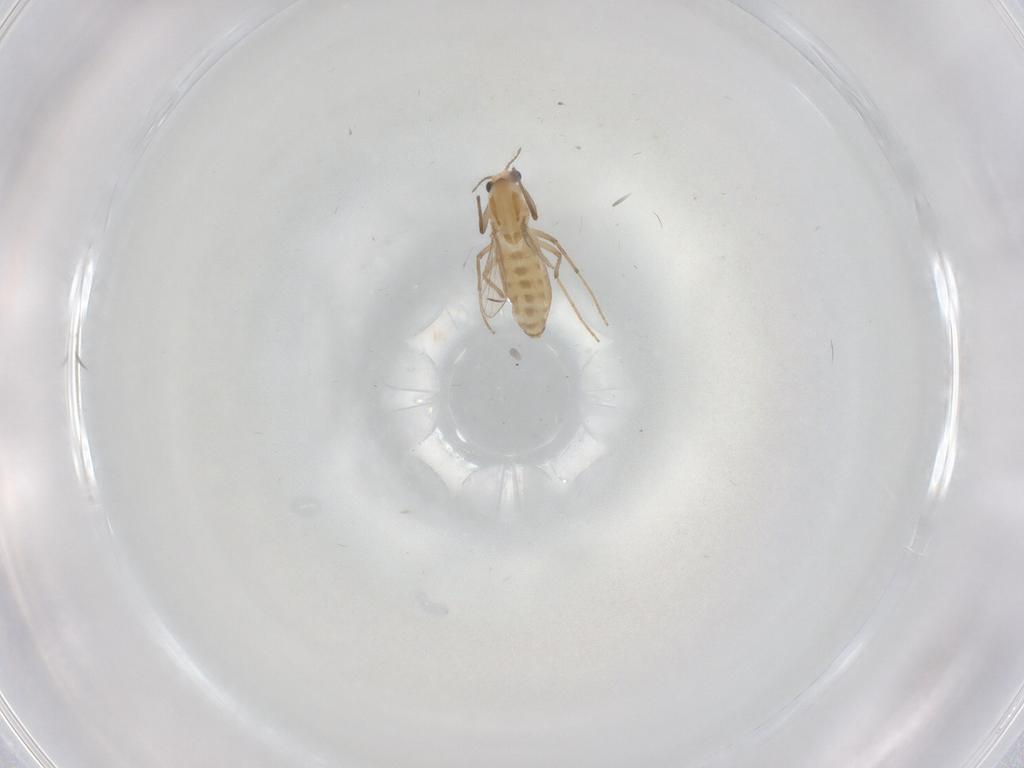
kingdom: Animalia
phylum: Arthropoda
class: Insecta
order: Diptera
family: Chironomidae
